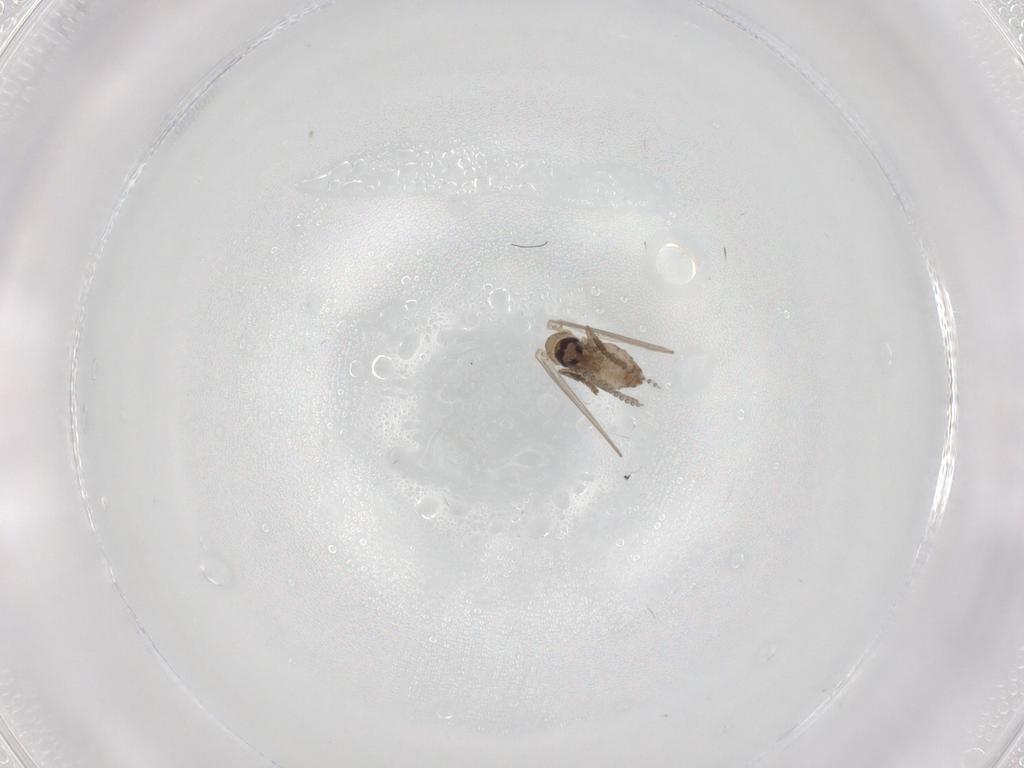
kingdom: Animalia
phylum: Arthropoda
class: Insecta
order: Diptera
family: Psychodidae
